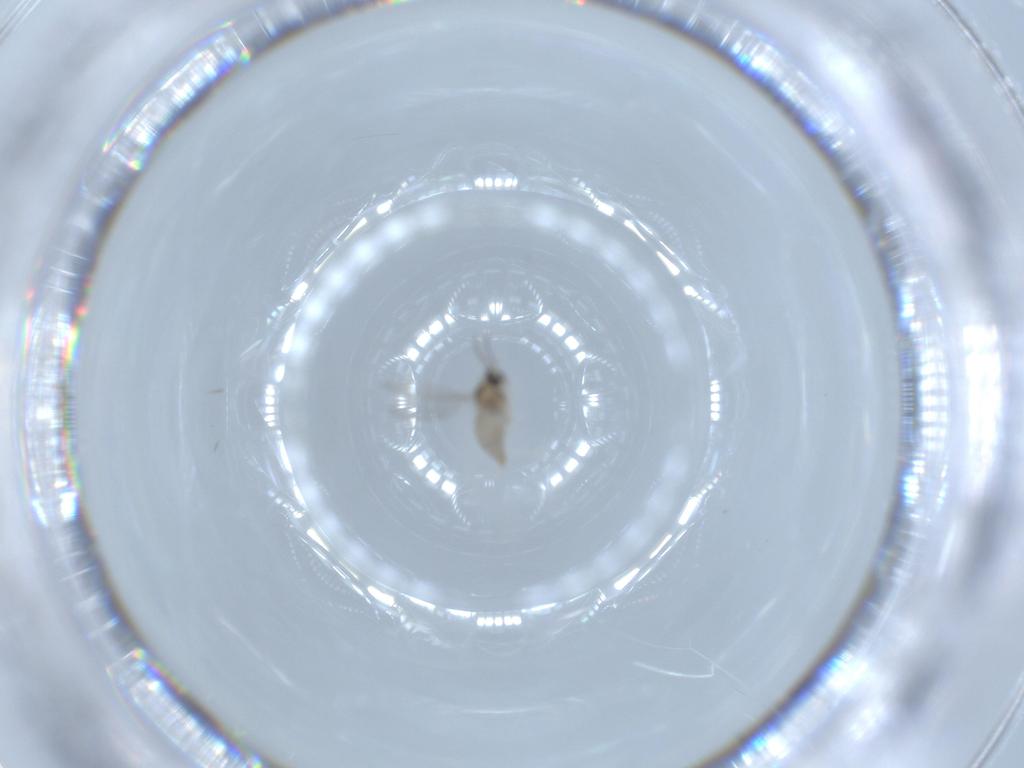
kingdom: Animalia
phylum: Arthropoda
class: Insecta
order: Diptera
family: Cecidomyiidae
